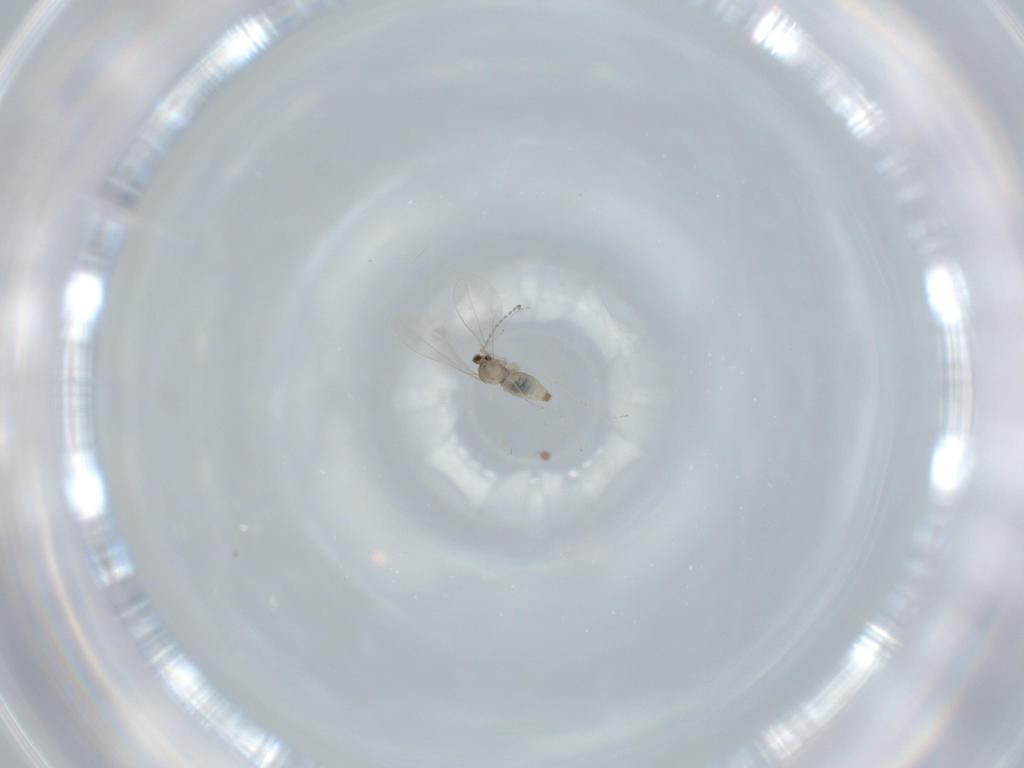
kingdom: Animalia
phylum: Arthropoda
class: Insecta
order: Diptera
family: Cecidomyiidae
